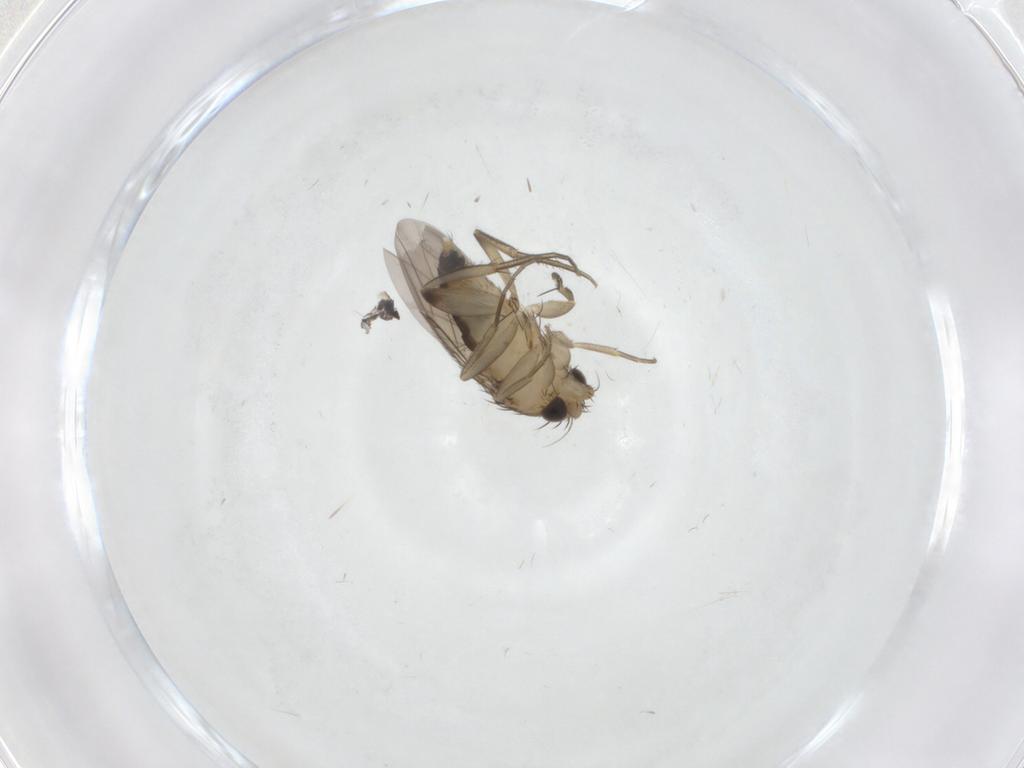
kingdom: Animalia
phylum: Arthropoda
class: Insecta
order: Diptera
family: Phoridae
